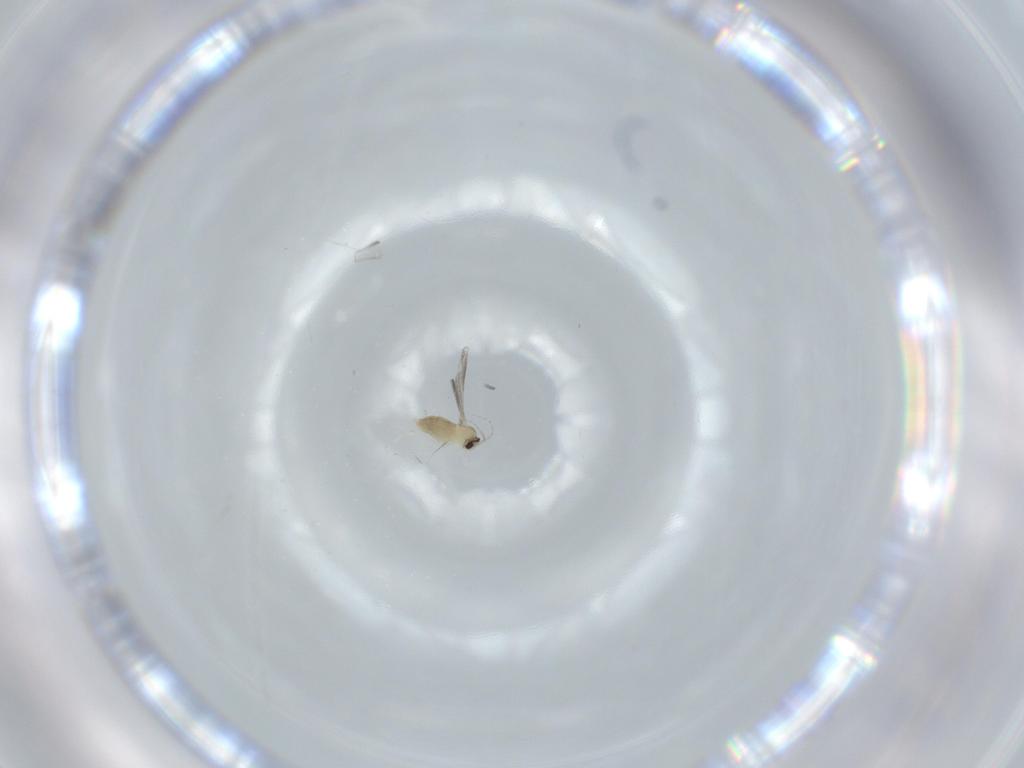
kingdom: Animalia
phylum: Arthropoda
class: Insecta
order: Diptera
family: Cecidomyiidae
